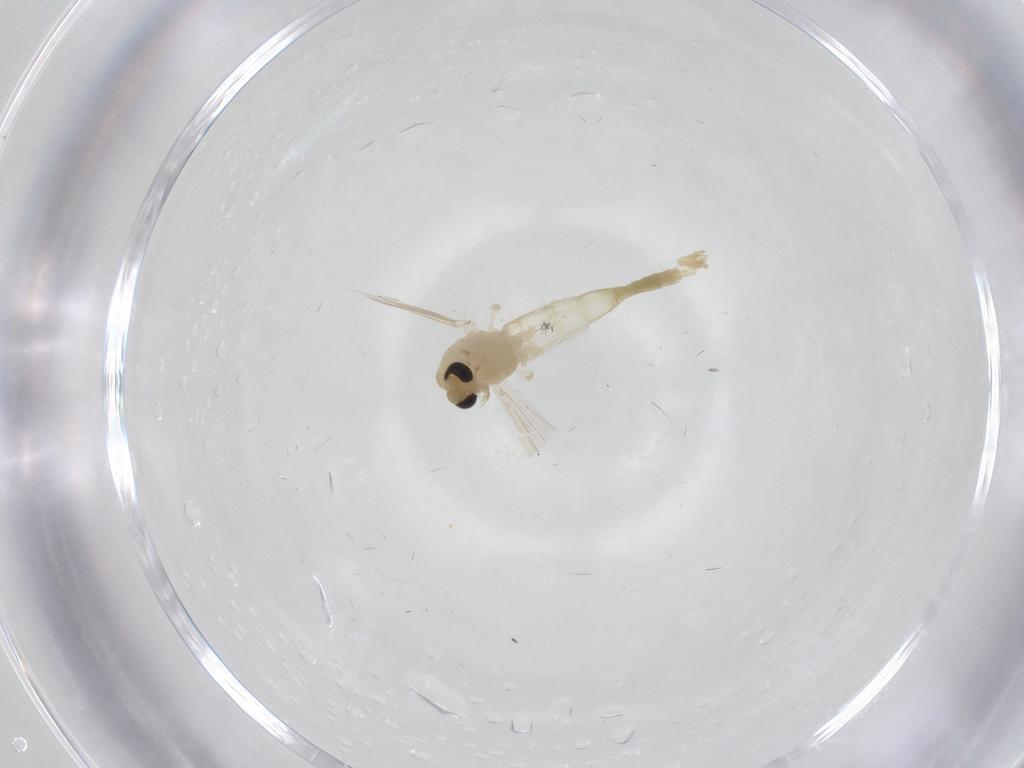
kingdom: Animalia
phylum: Arthropoda
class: Insecta
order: Diptera
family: Chironomidae
